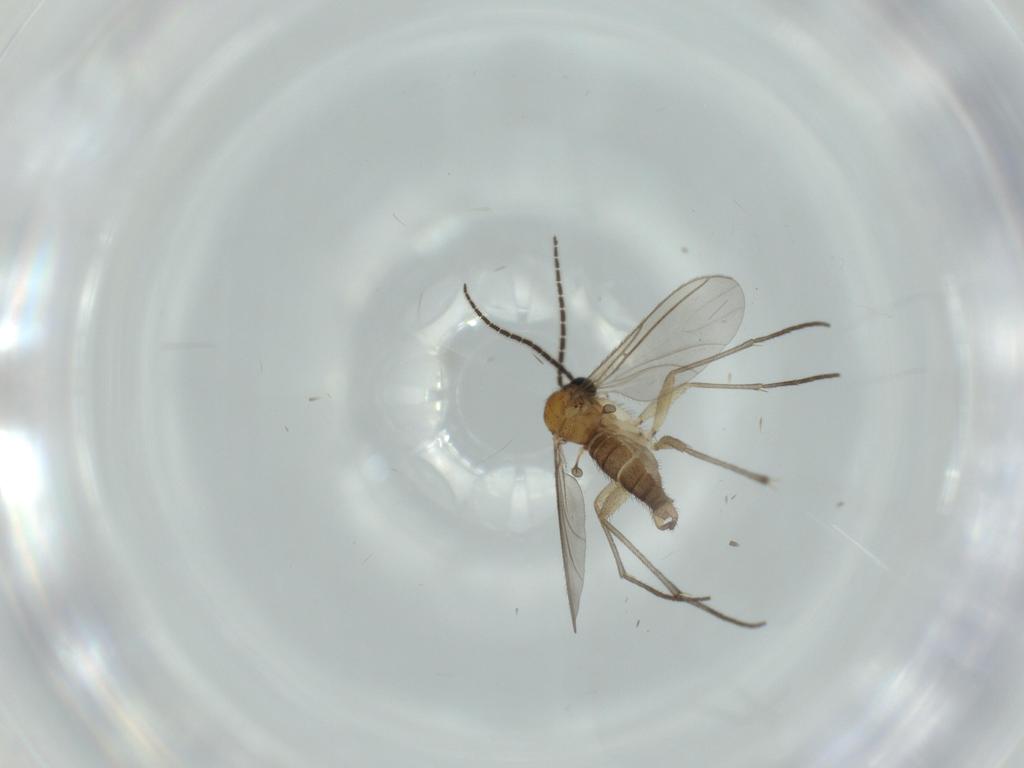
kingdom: Animalia
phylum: Arthropoda
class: Insecta
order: Diptera
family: Sciaridae
